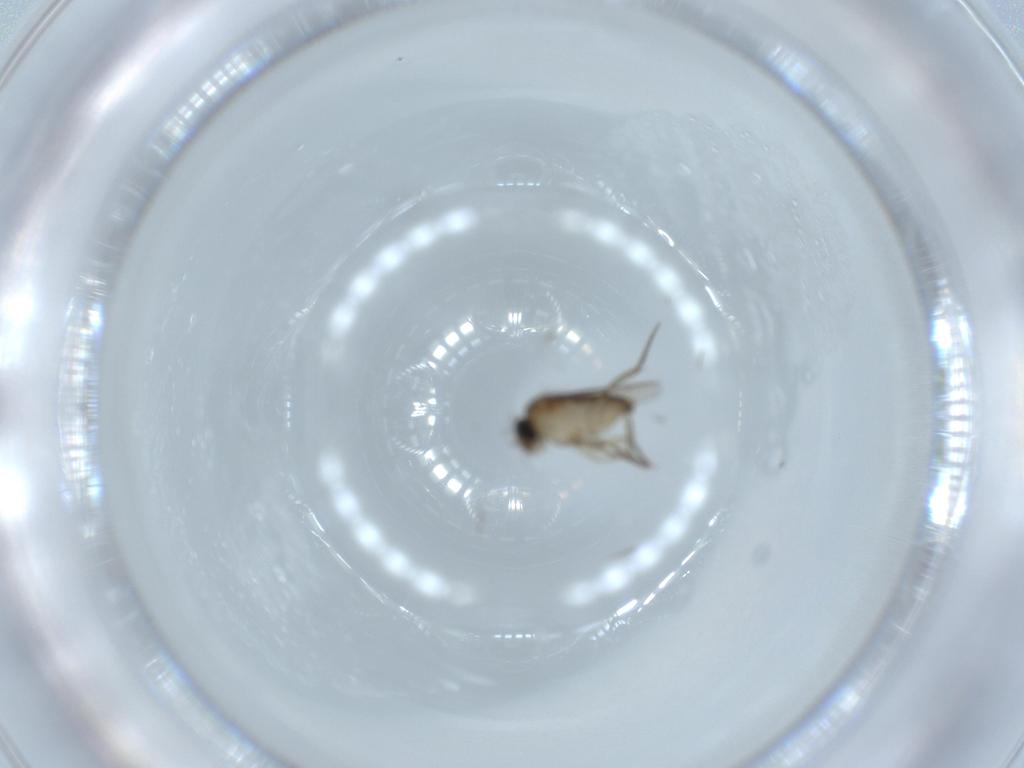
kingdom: Animalia
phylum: Arthropoda
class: Insecta
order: Diptera
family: Phoridae
